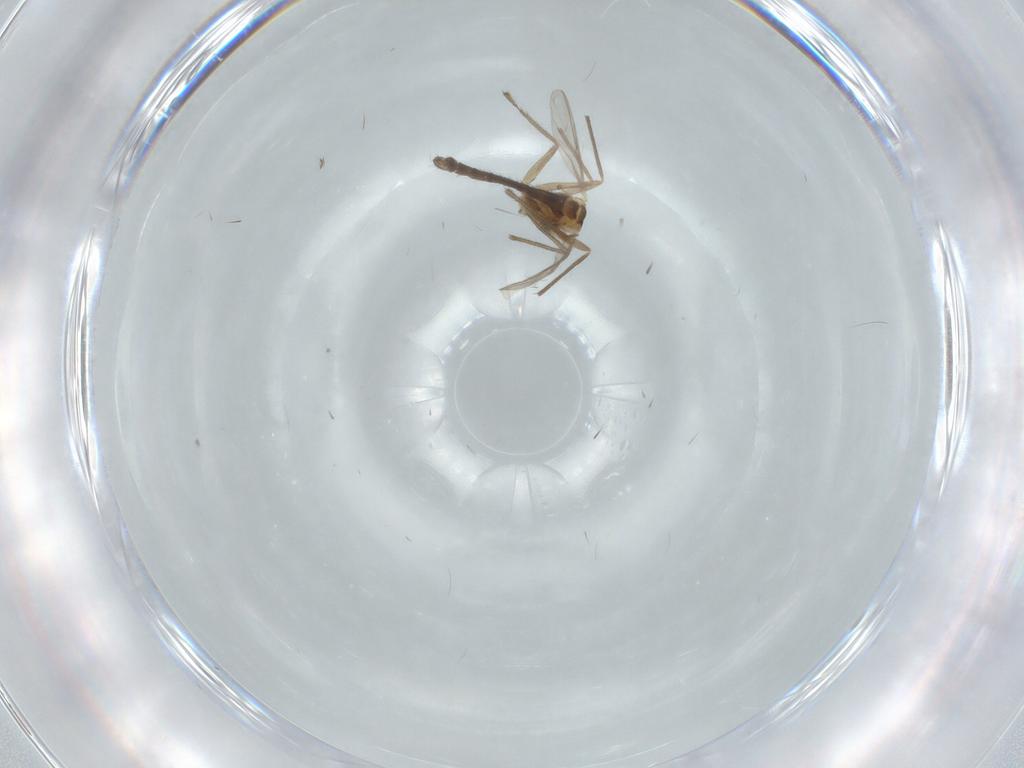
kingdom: Animalia
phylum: Arthropoda
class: Insecta
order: Diptera
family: Chironomidae
